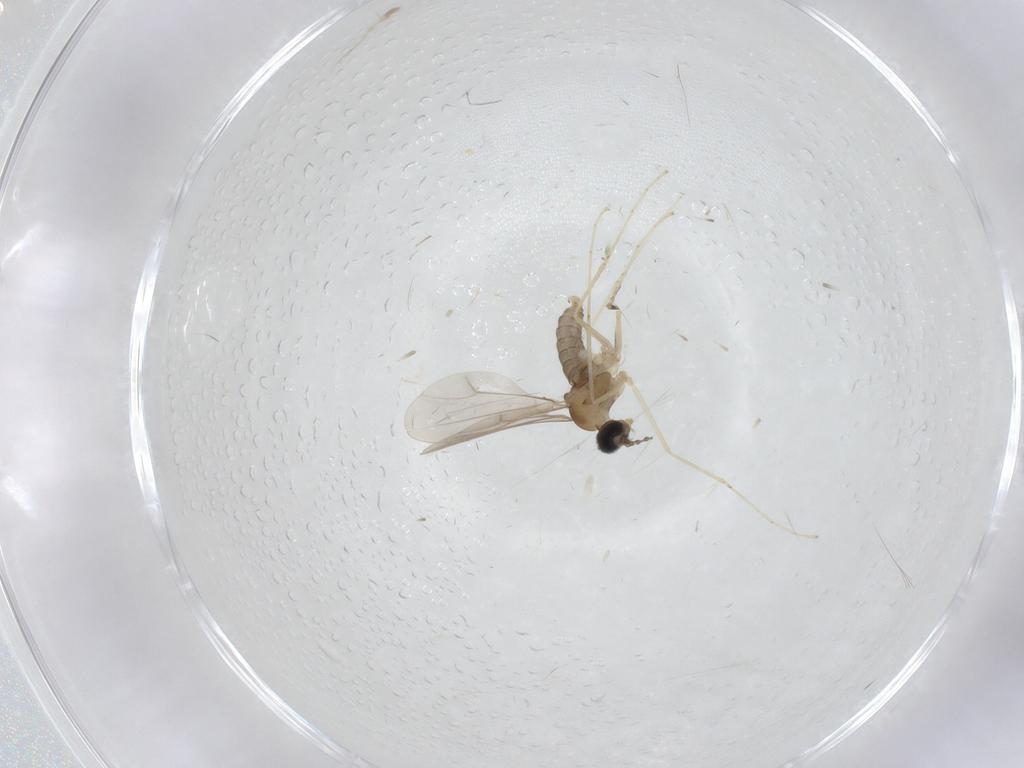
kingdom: Animalia
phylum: Arthropoda
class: Insecta
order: Diptera
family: Cecidomyiidae
